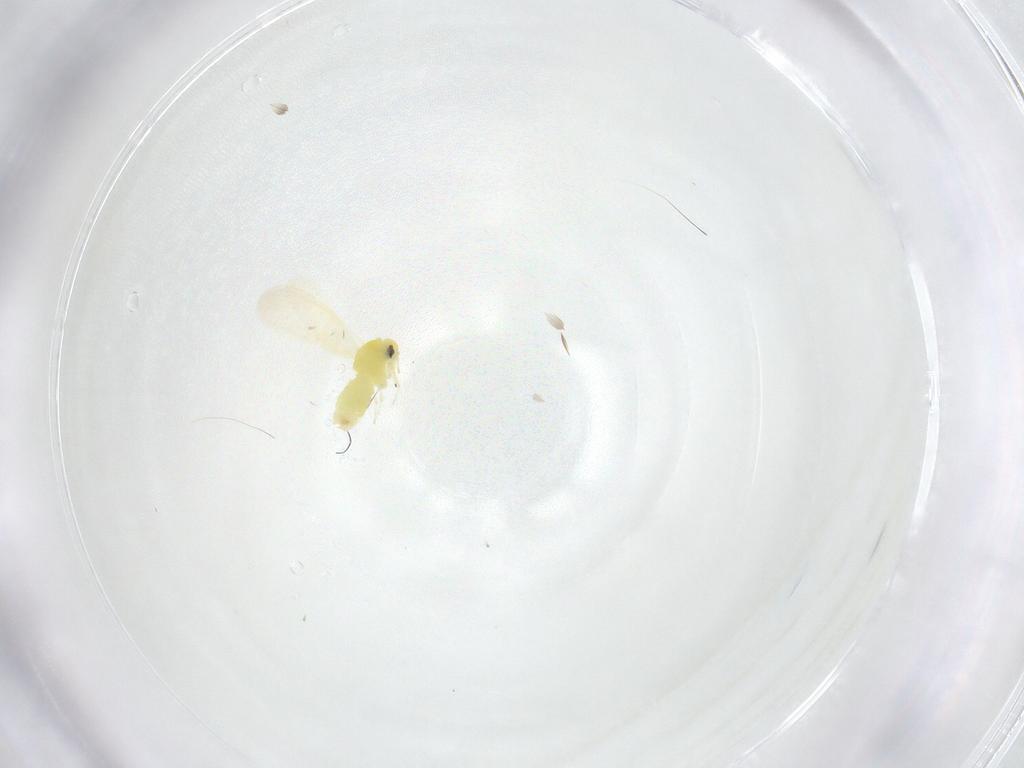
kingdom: Animalia
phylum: Arthropoda
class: Insecta
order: Hemiptera
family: Aleyrodidae
